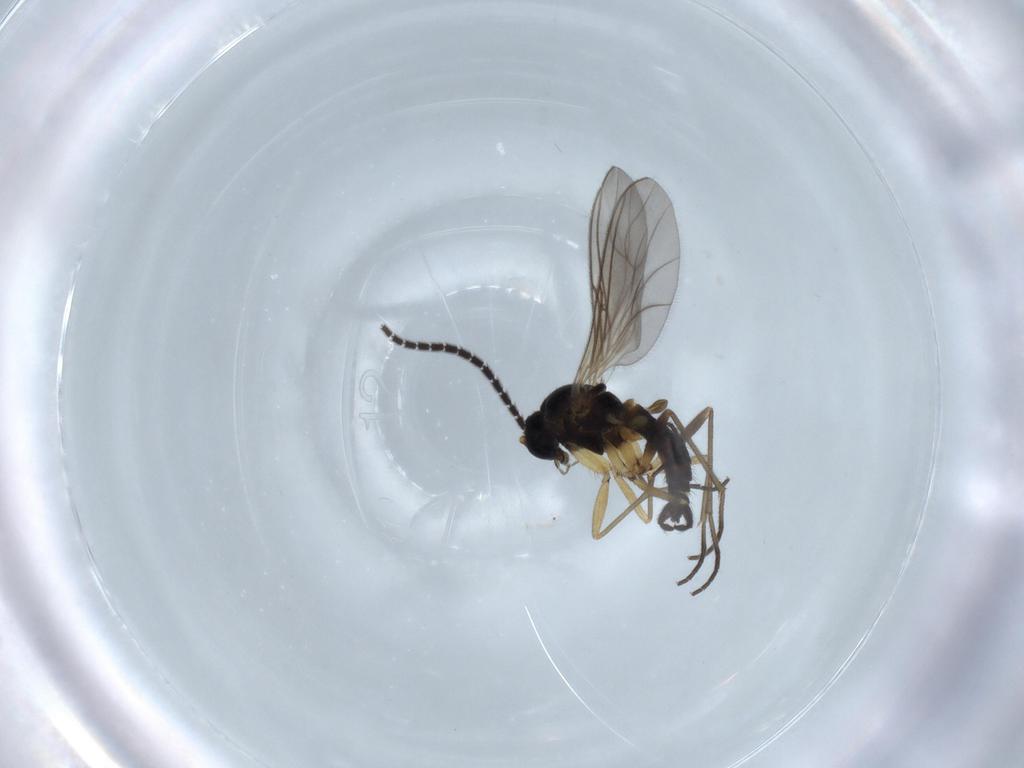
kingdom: Animalia
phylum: Arthropoda
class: Insecta
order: Diptera
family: Sciaridae
